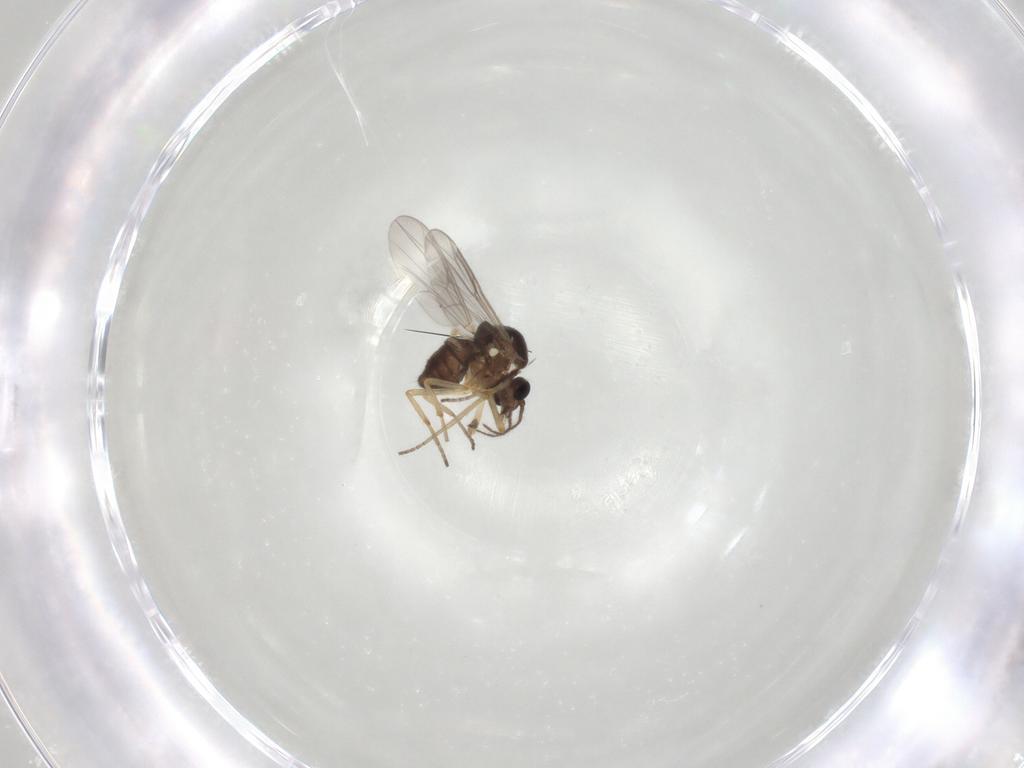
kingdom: Animalia
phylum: Arthropoda
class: Insecta
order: Diptera
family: Ceratopogonidae
